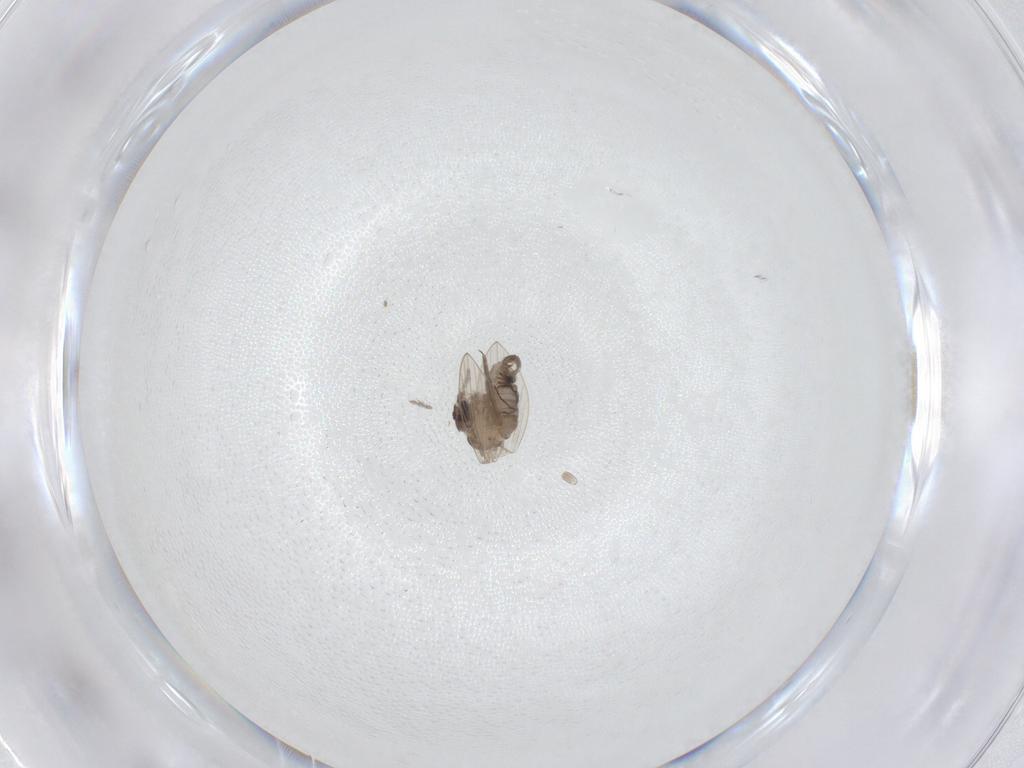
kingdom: Animalia
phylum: Arthropoda
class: Insecta
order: Diptera
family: Psychodidae
